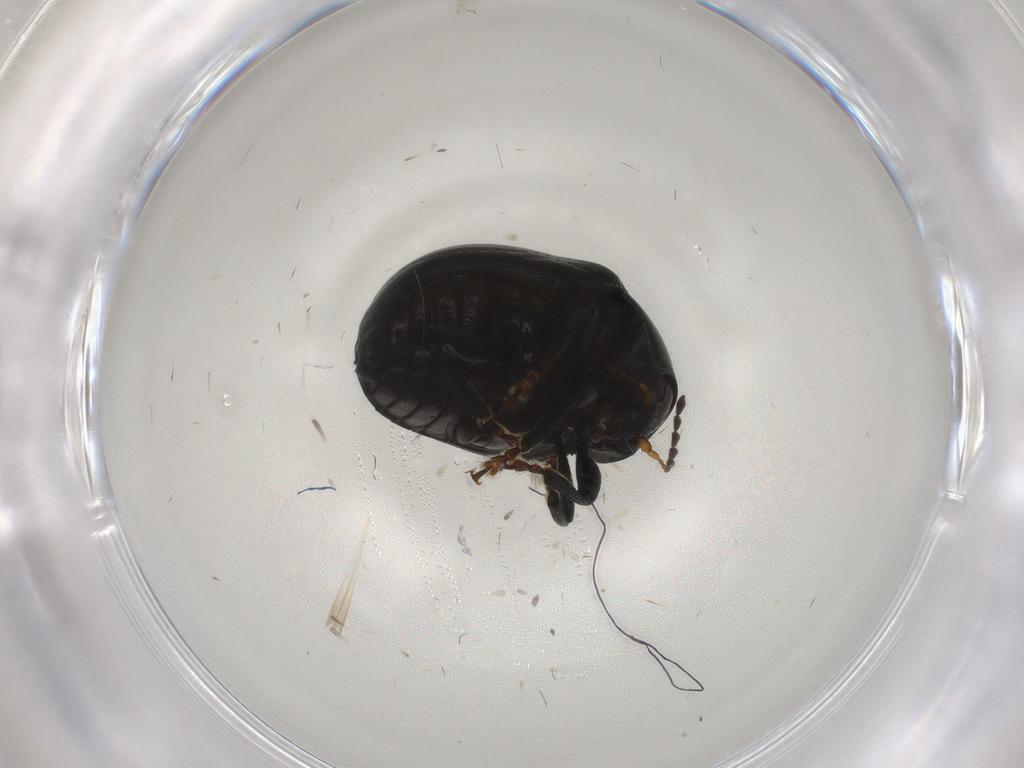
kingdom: Animalia
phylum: Arthropoda
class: Insecta
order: Coleoptera
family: Chrysomelidae
